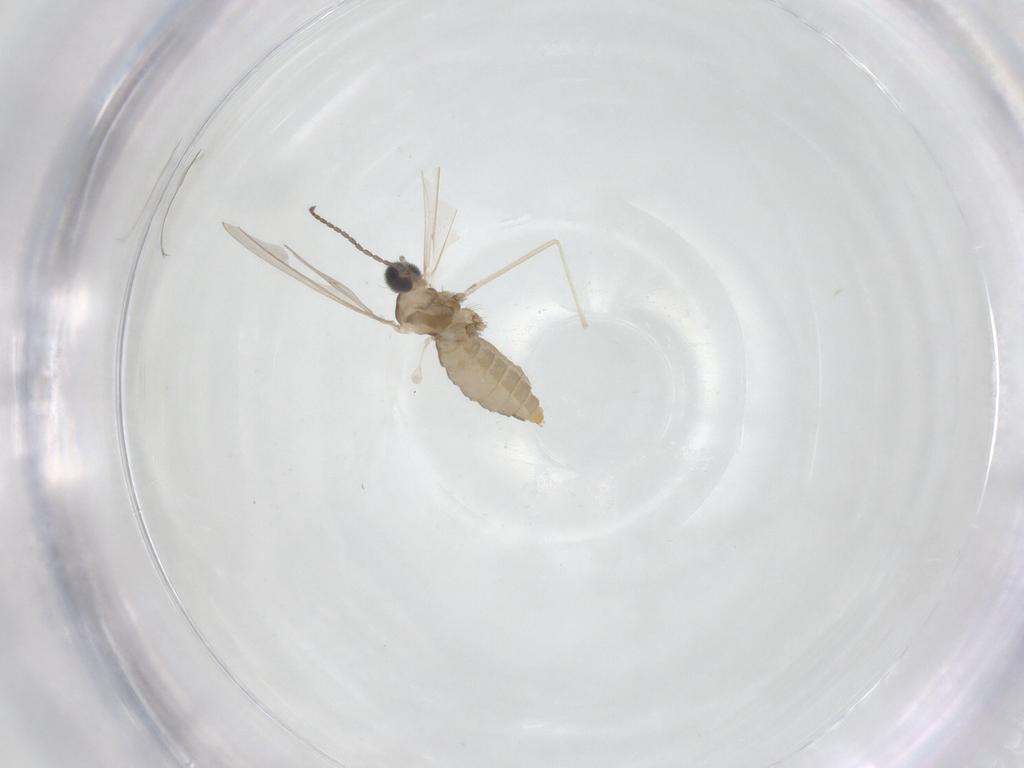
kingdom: Animalia
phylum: Arthropoda
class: Insecta
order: Diptera
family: Cecidomyiidae
